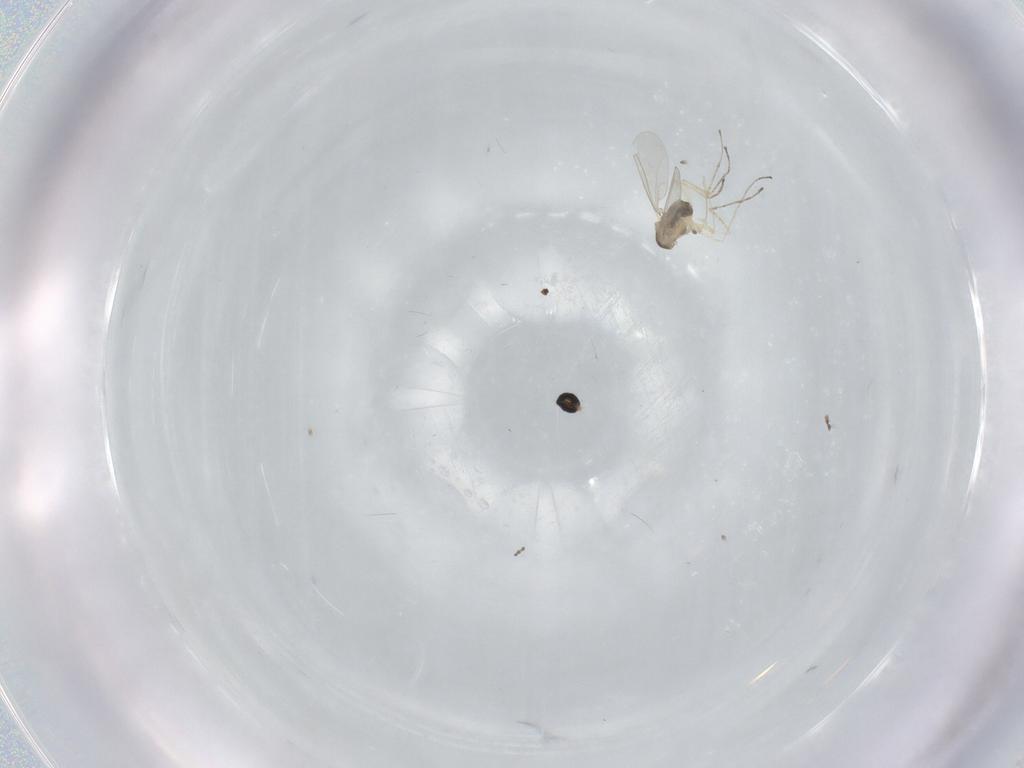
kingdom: Animalia
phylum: Arthropoda
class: Insecta
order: Diptera
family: Cecidomyiidae
